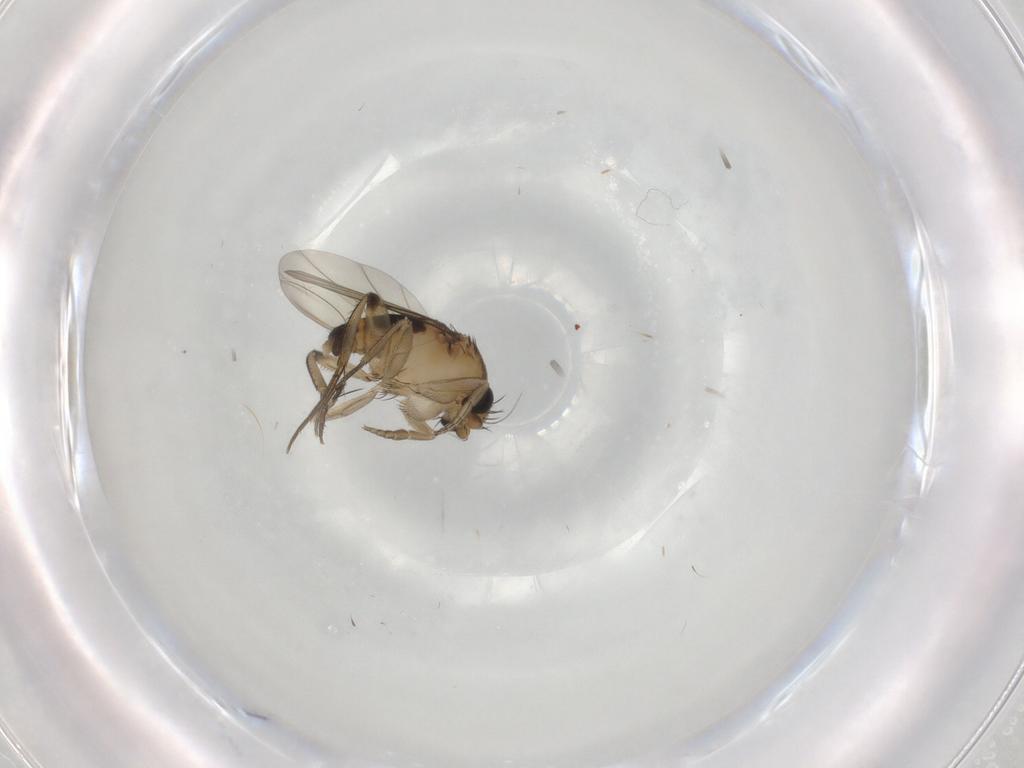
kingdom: Animalia
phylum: Arthropoda
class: Insecta
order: Diptera
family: Phoridae
